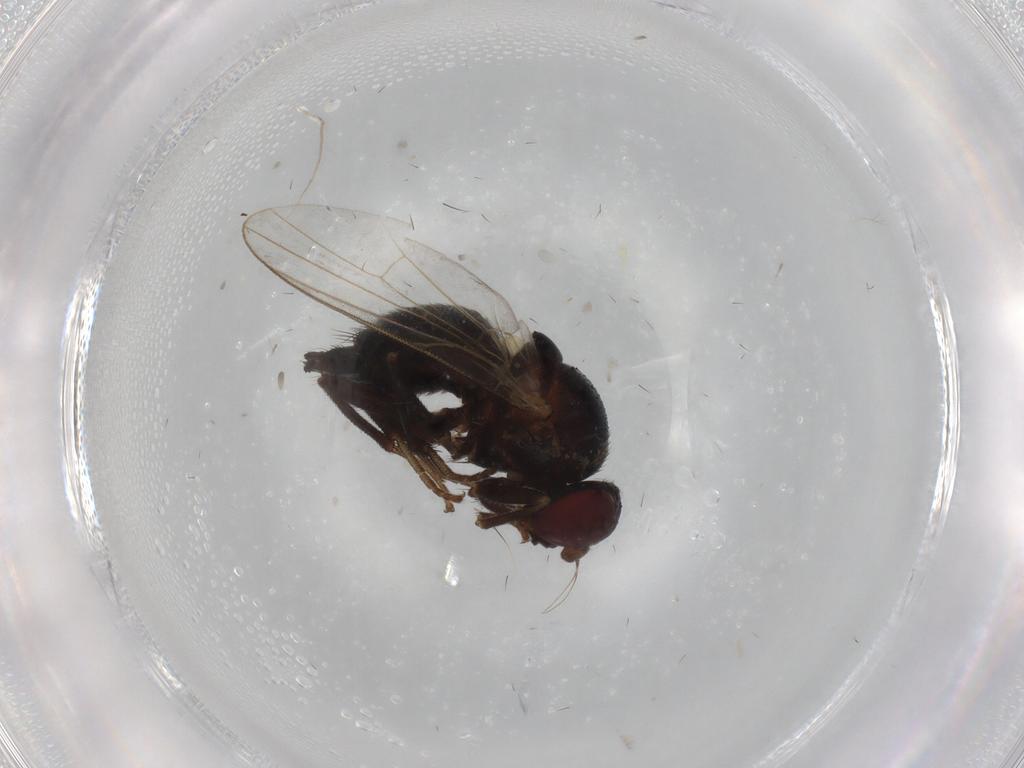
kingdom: Animalia
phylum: Arthropoda
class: Insecta
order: Diptera
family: Agromyzidae
